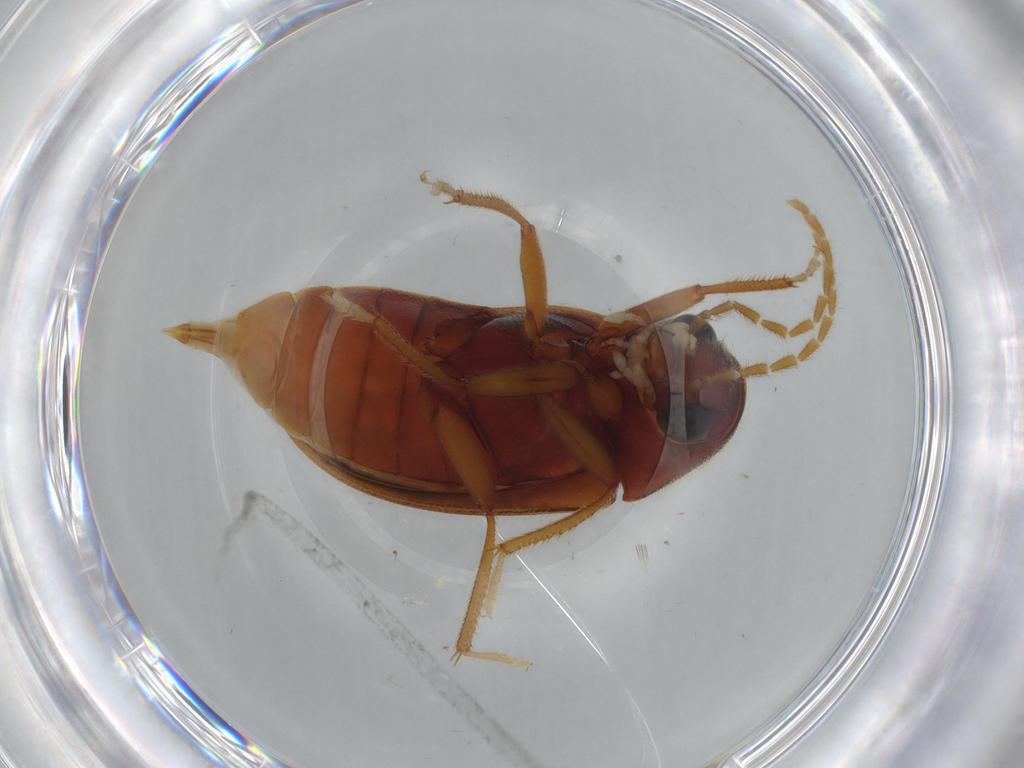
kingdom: Animalia
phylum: Arthropoda
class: Insecta
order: Coleoptera
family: Ptilodactylidae
